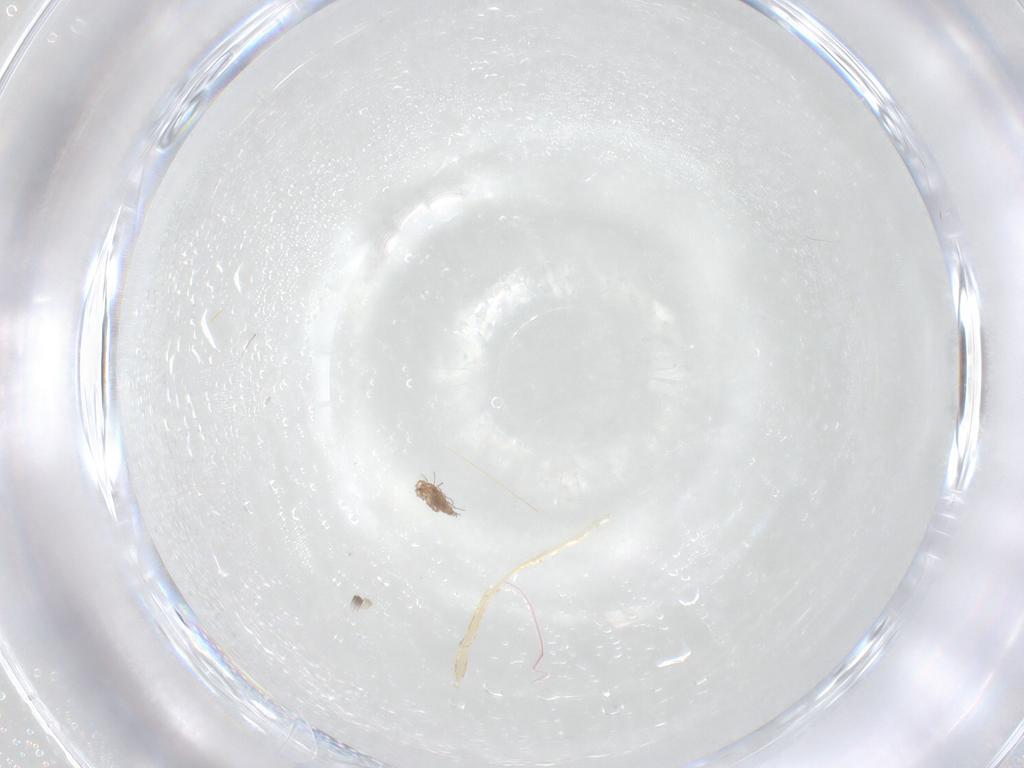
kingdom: Animalia
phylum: Arthropoda
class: Arachnida
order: Sarcoptiformes
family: Scheloribatidae
